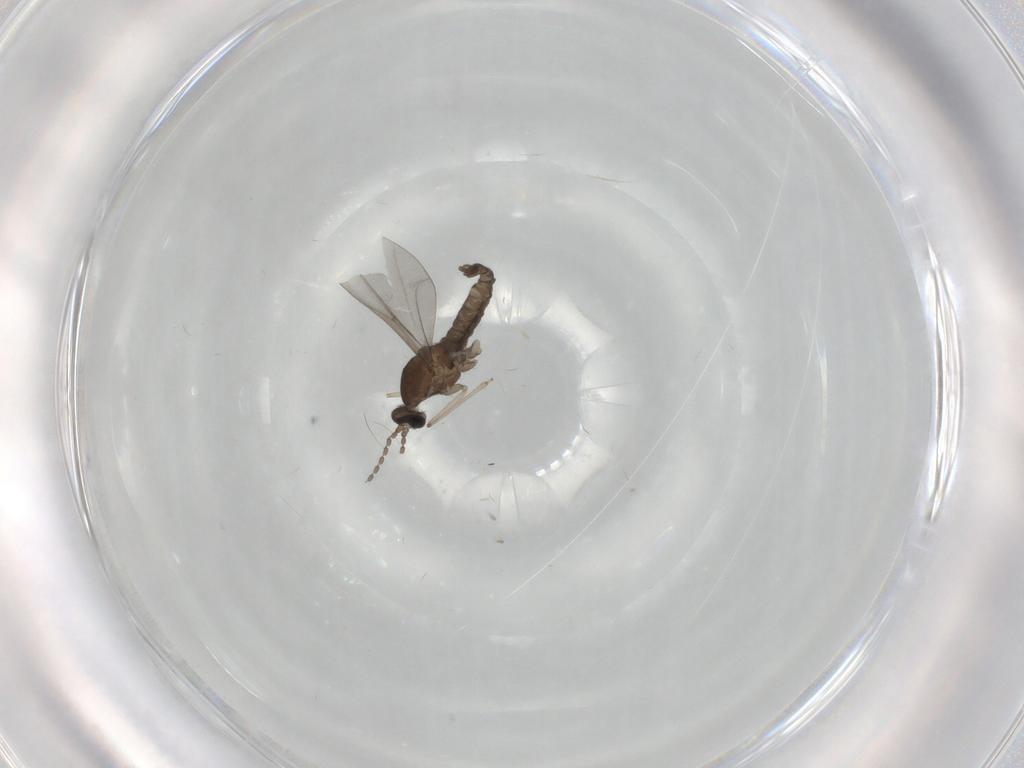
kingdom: Animalia
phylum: Arthropoda
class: Insecta
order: Diptera
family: Cecidomyiidae
